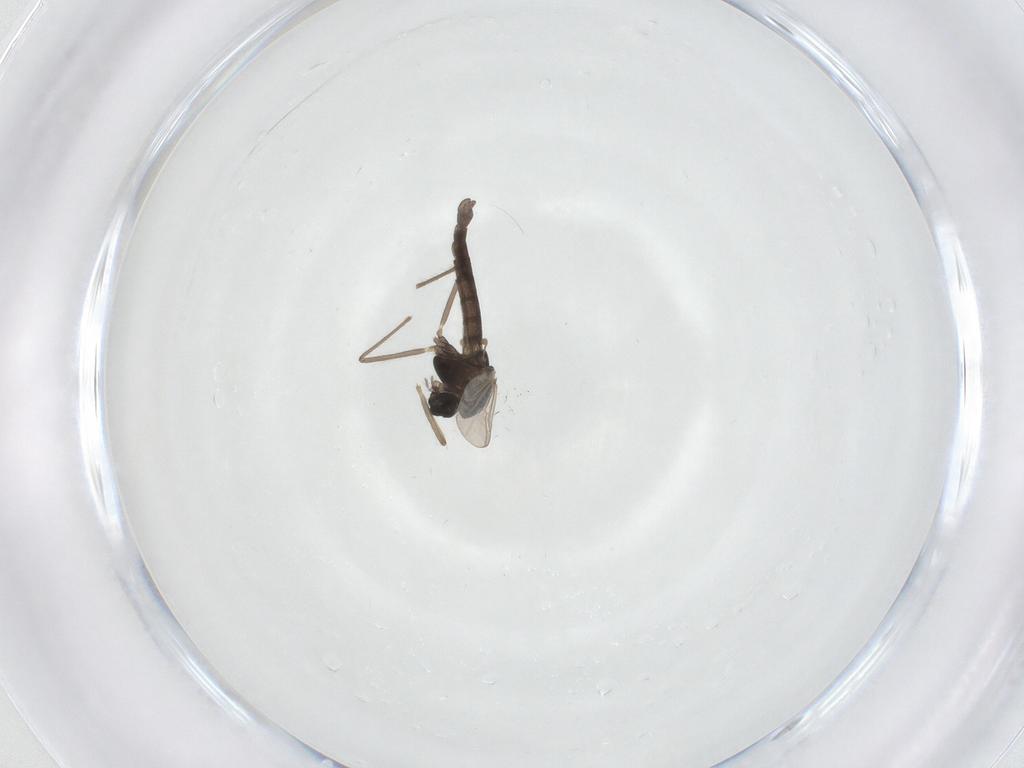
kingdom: Animalia
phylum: Arthropoda
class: Insecta
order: Diptera
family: Chironomidae
